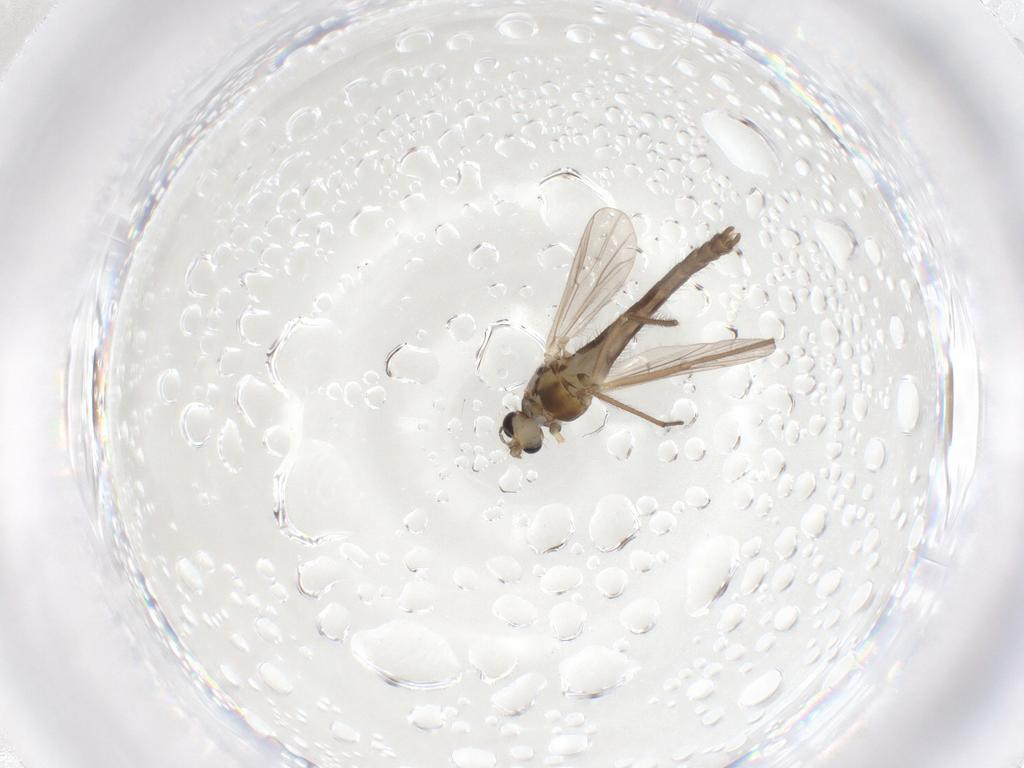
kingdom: Animalia
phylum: Arthropoda
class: Insecta
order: Diptera
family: Chironomidae
